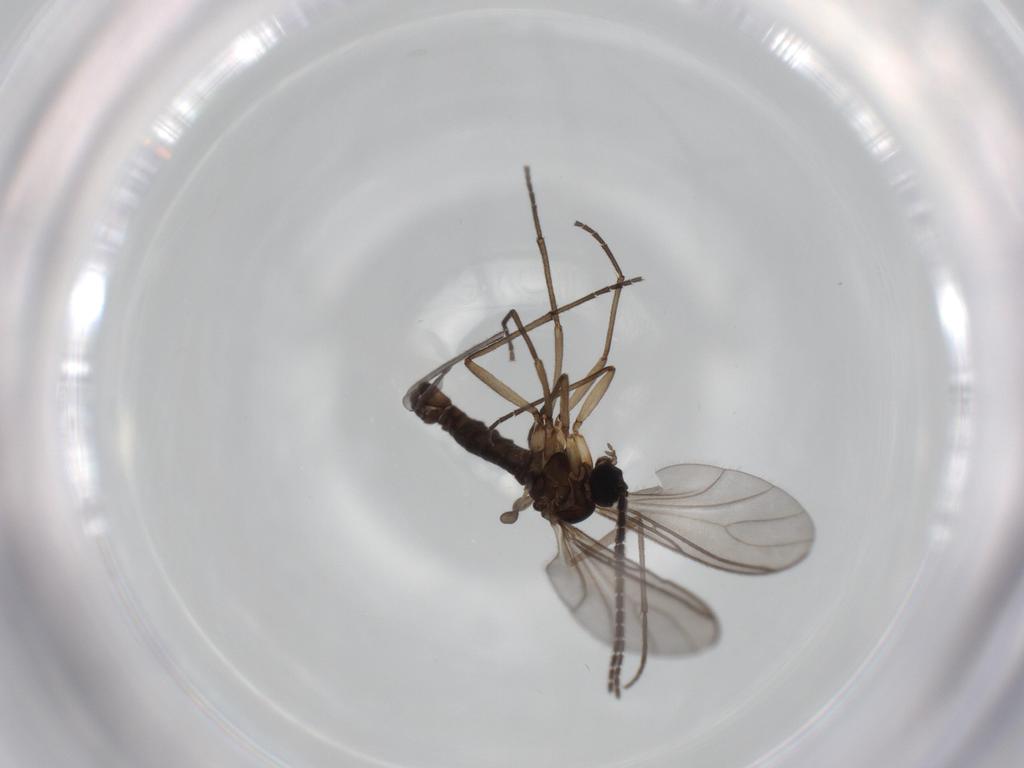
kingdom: Animalia
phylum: Arthropoda
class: Insecta
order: Diptera
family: Sciaridae
